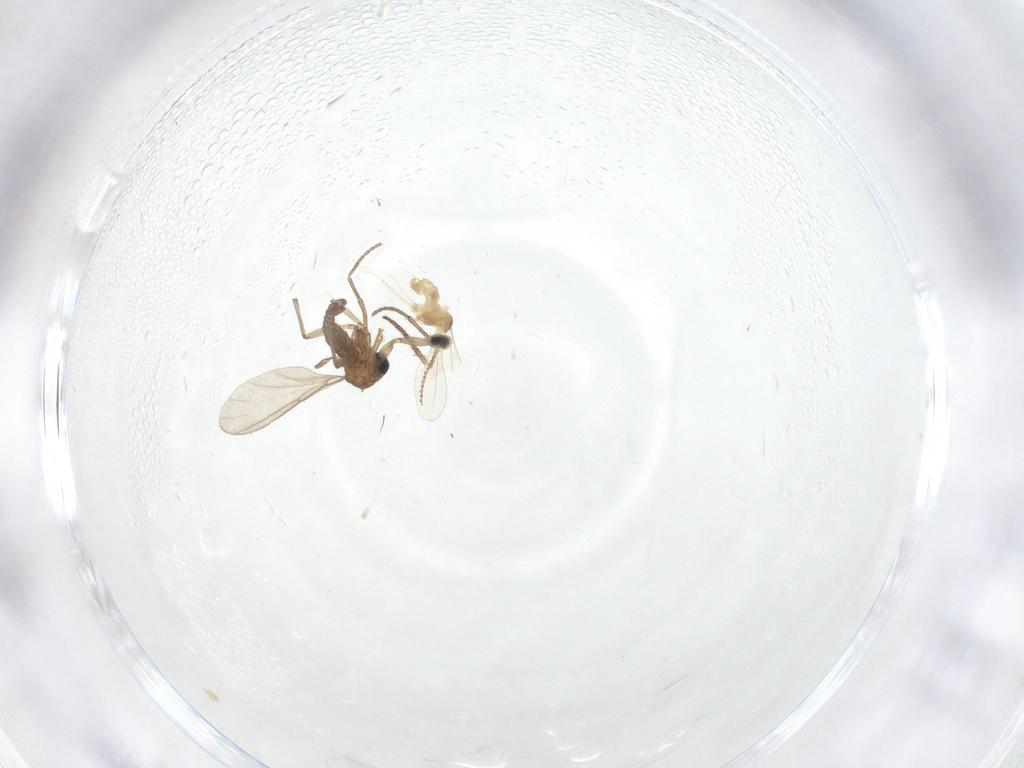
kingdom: Animalia
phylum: Arthropoda
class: Insecta
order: Diptera
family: Cecidomyiidae
